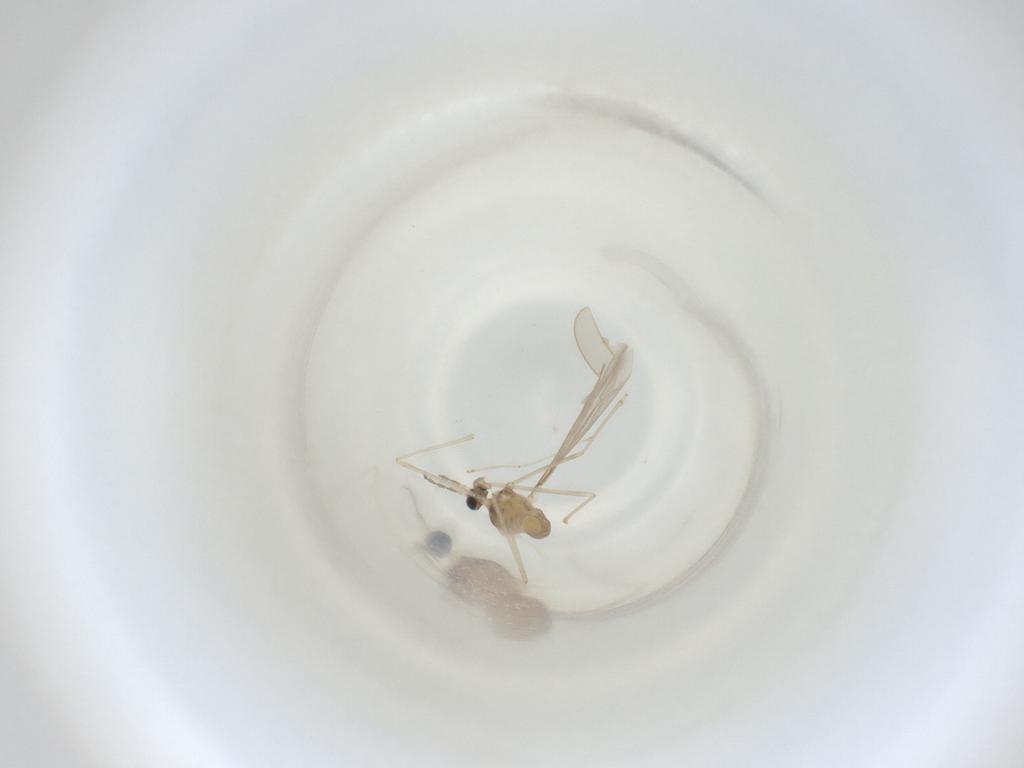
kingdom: Animalia
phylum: Arthropoda
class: Insecta
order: Diptera
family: Cecidomyiidae
